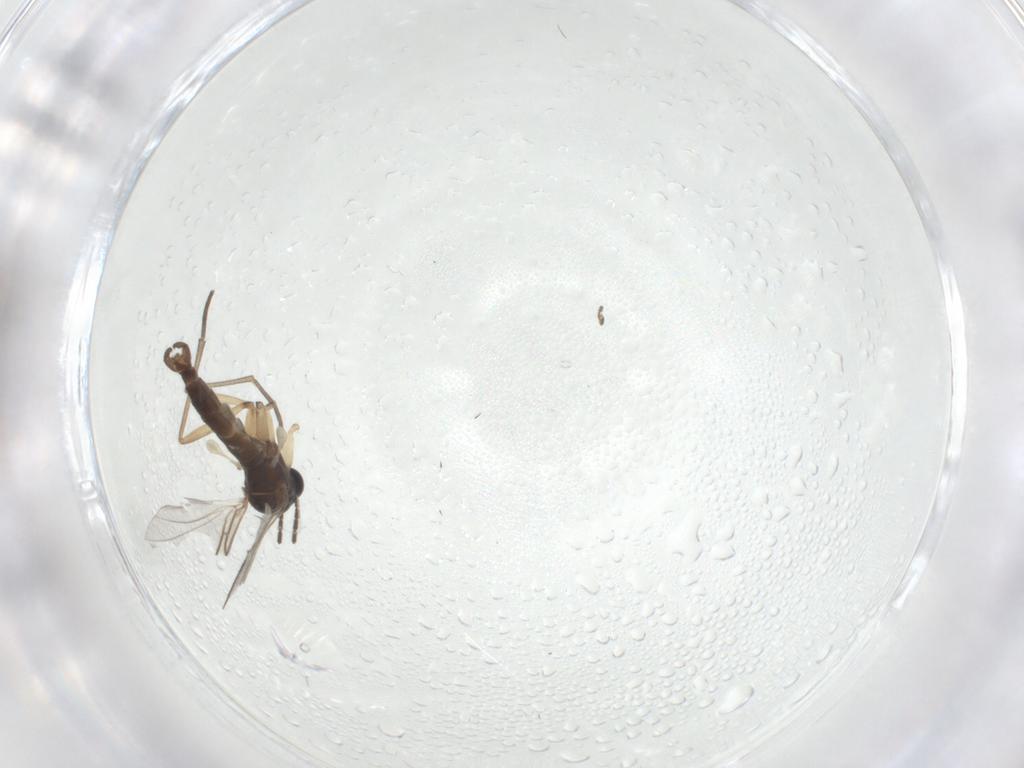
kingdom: Animalia
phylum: Arthropoda
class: Insecta
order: Diptera
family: Sciaridae
